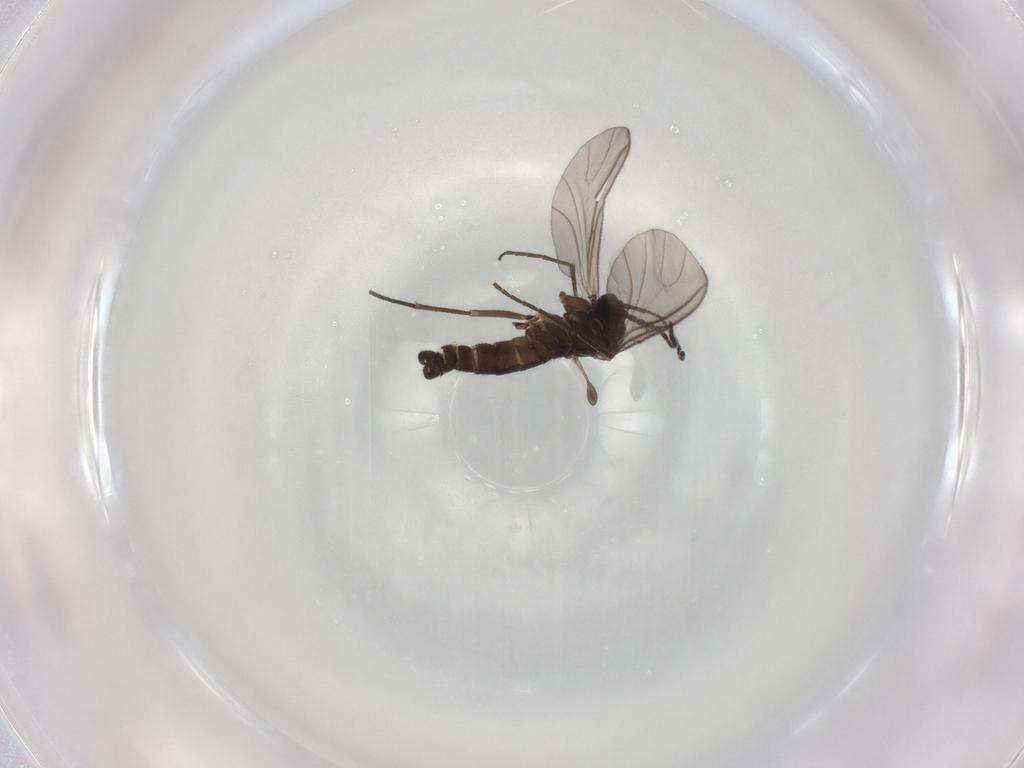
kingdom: Animalia
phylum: Arthropoda
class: Insecta
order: Diptera
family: Sciaridae
